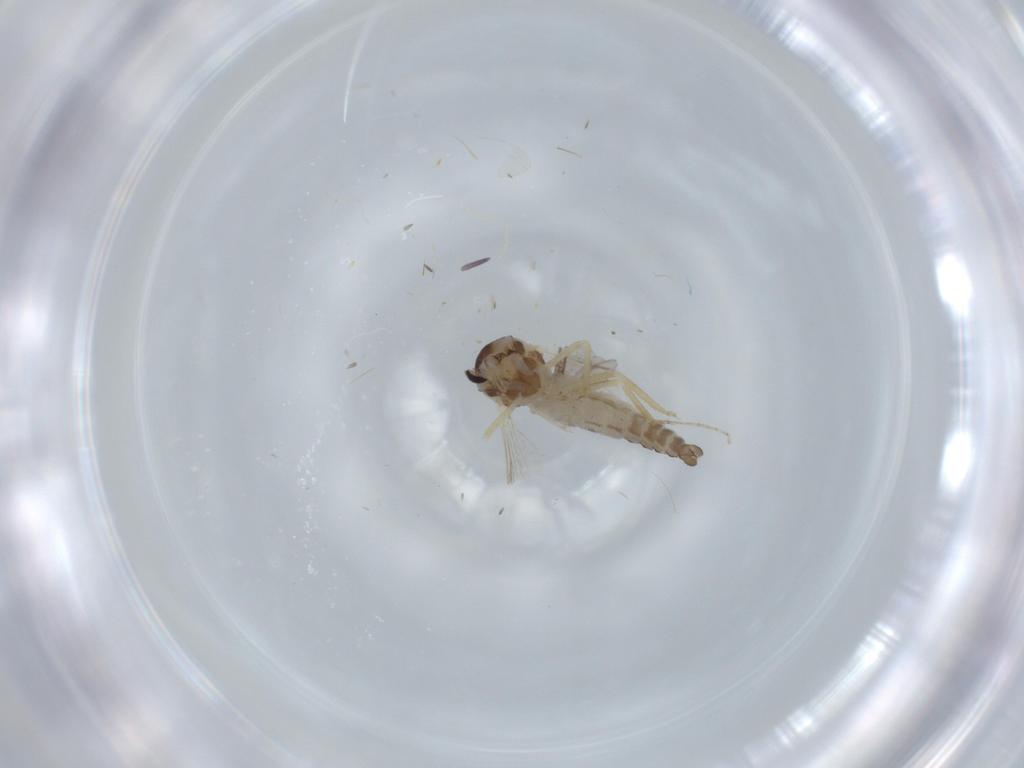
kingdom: Animalia
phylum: Arthropoda
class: Insecta
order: Diptera
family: Ceratopogonidae
